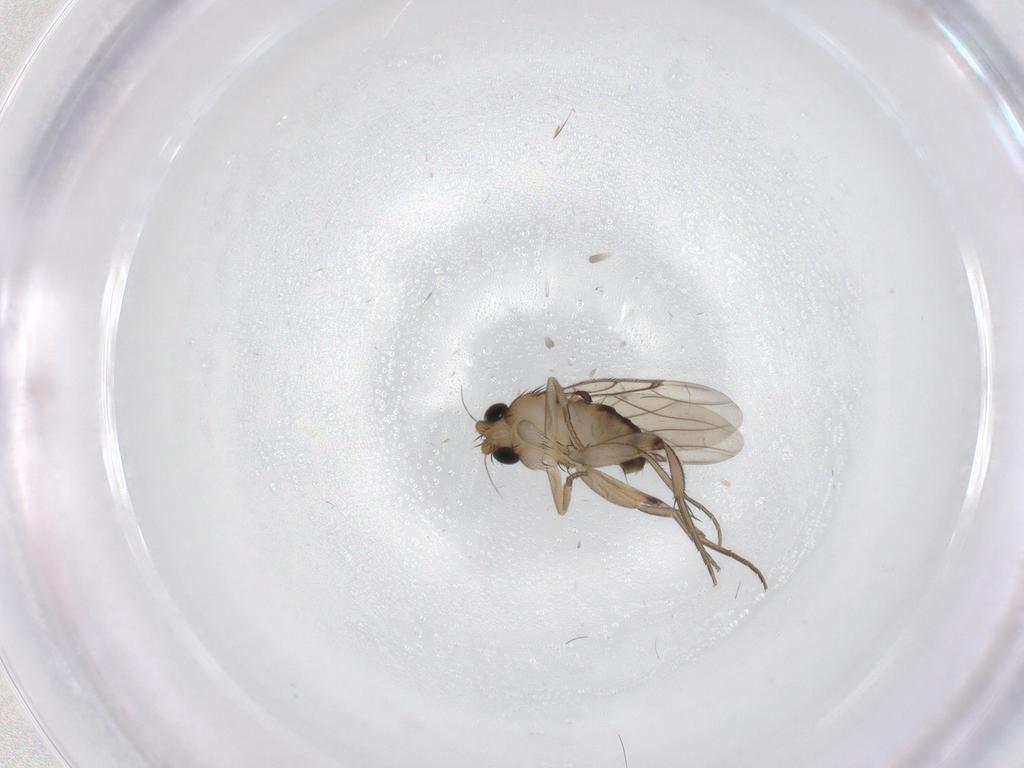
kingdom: Animalia
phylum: Arthropoda
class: Insecta
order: Diptera
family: Phoridae
